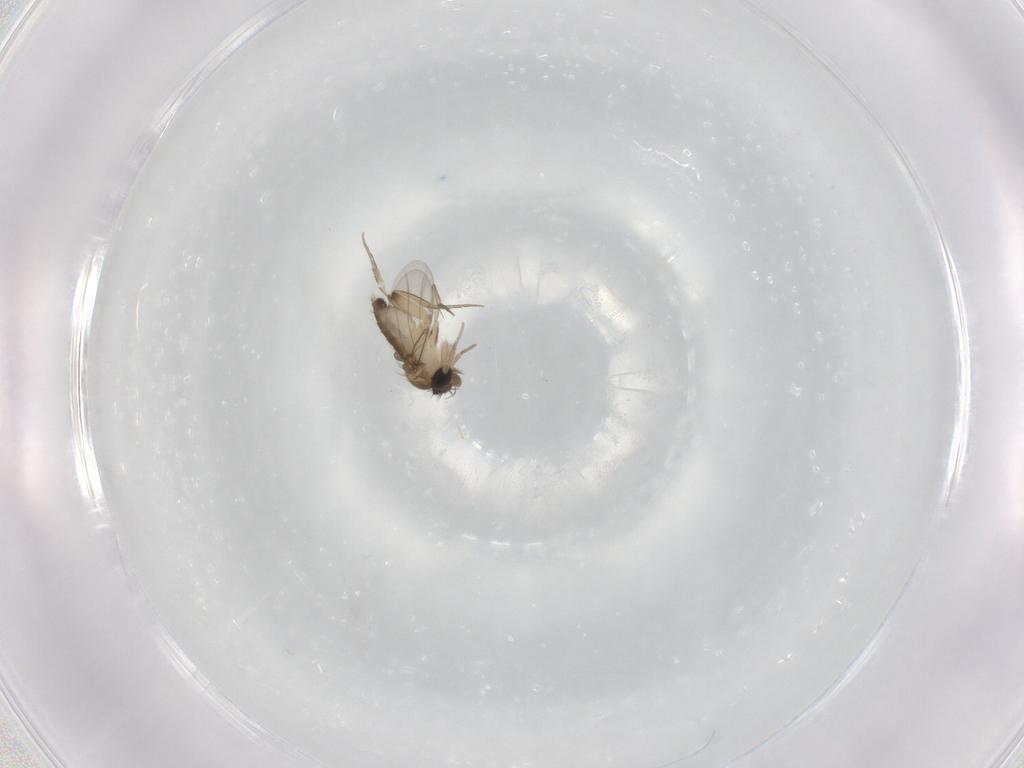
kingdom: Animalia
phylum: Arthropoda
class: Insecta
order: Diptera
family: Phoridae
